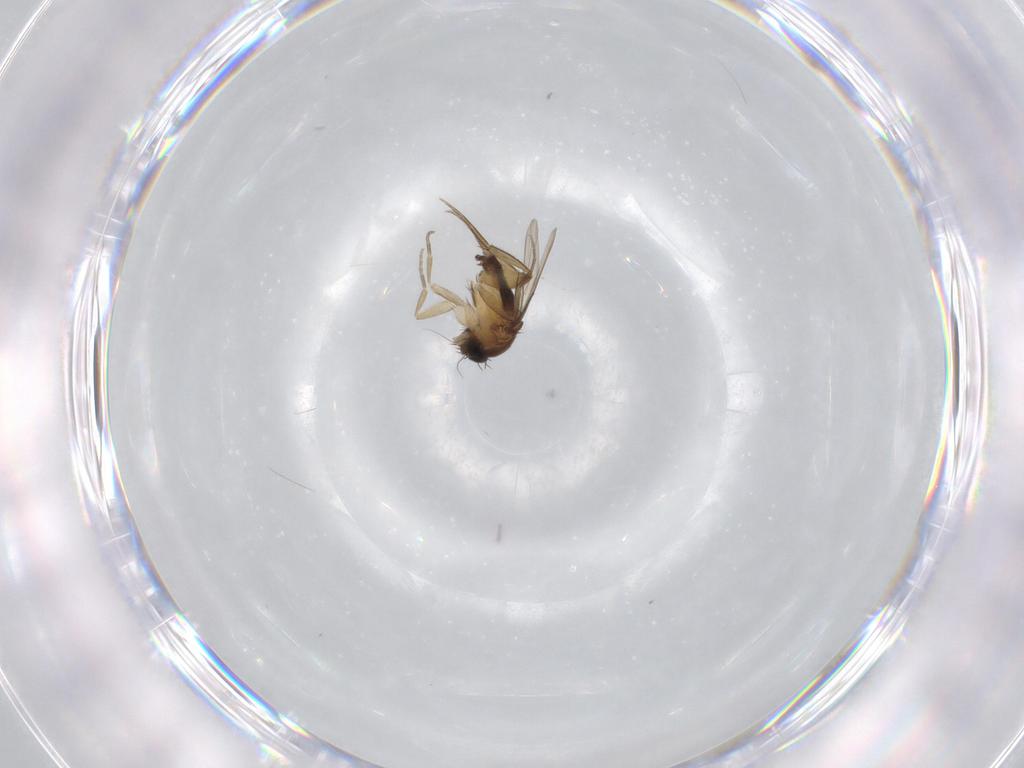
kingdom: Animalia
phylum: Arthropoda
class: Insecta
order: Diptera
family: Phoridae
